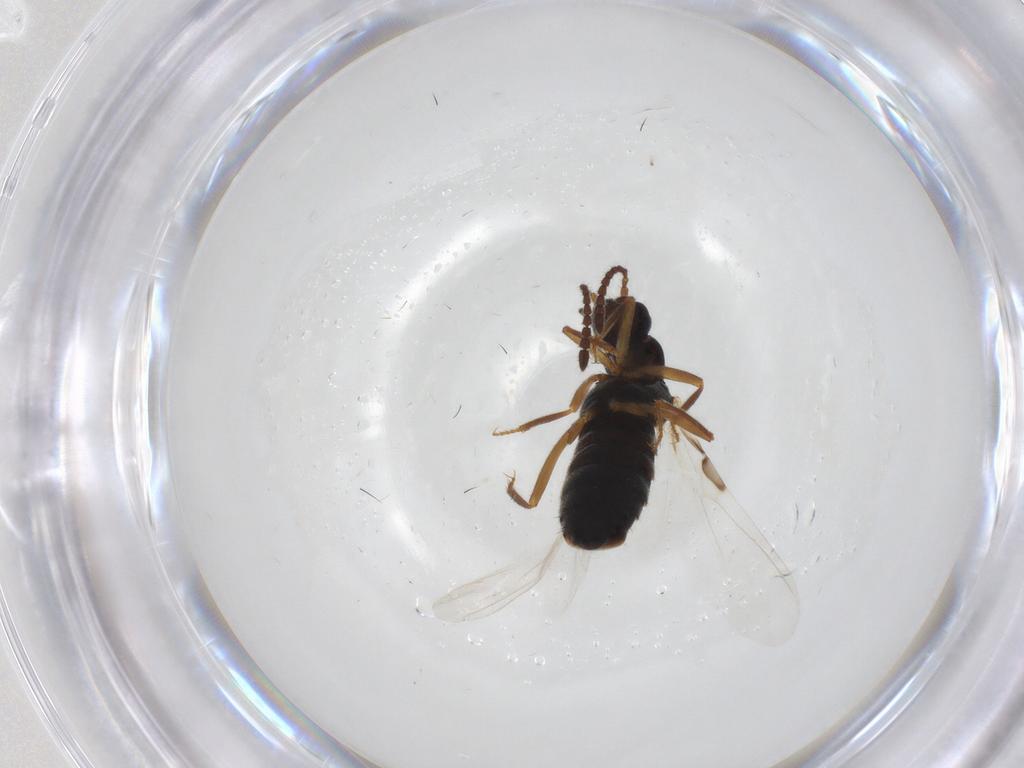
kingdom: Animalia
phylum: Arthropoda
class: Insecta
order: Coleoptera
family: Staphylinidae
